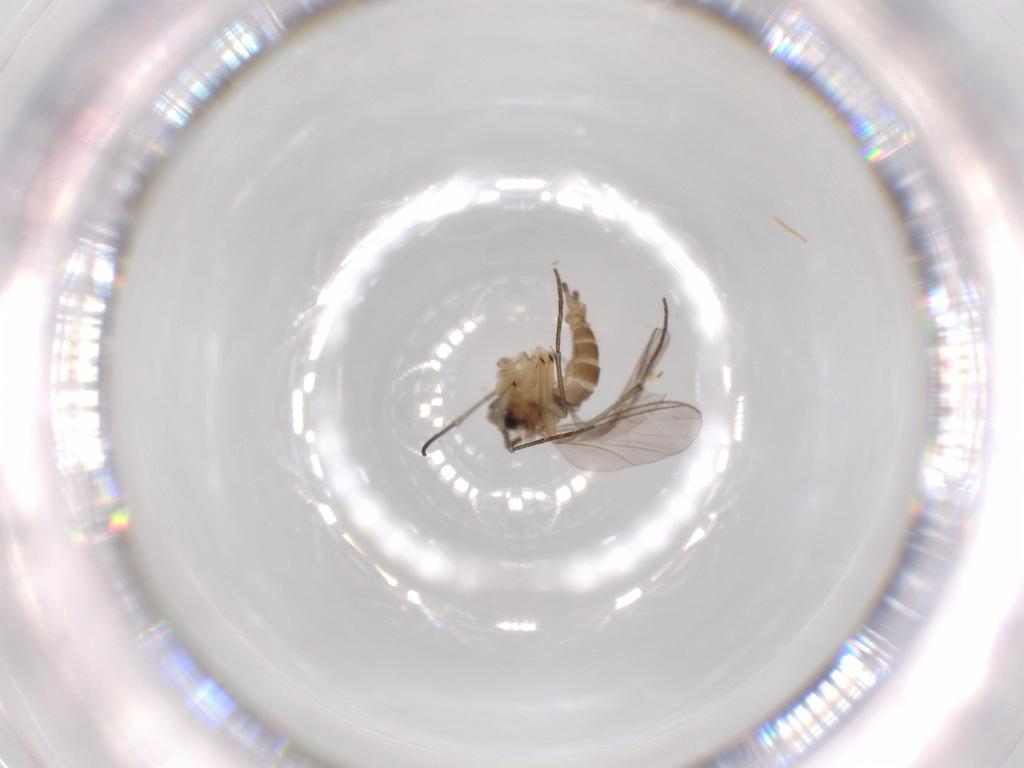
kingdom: Animalia
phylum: Arthropoda
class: Insecta
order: Diptera
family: Sciaridae
